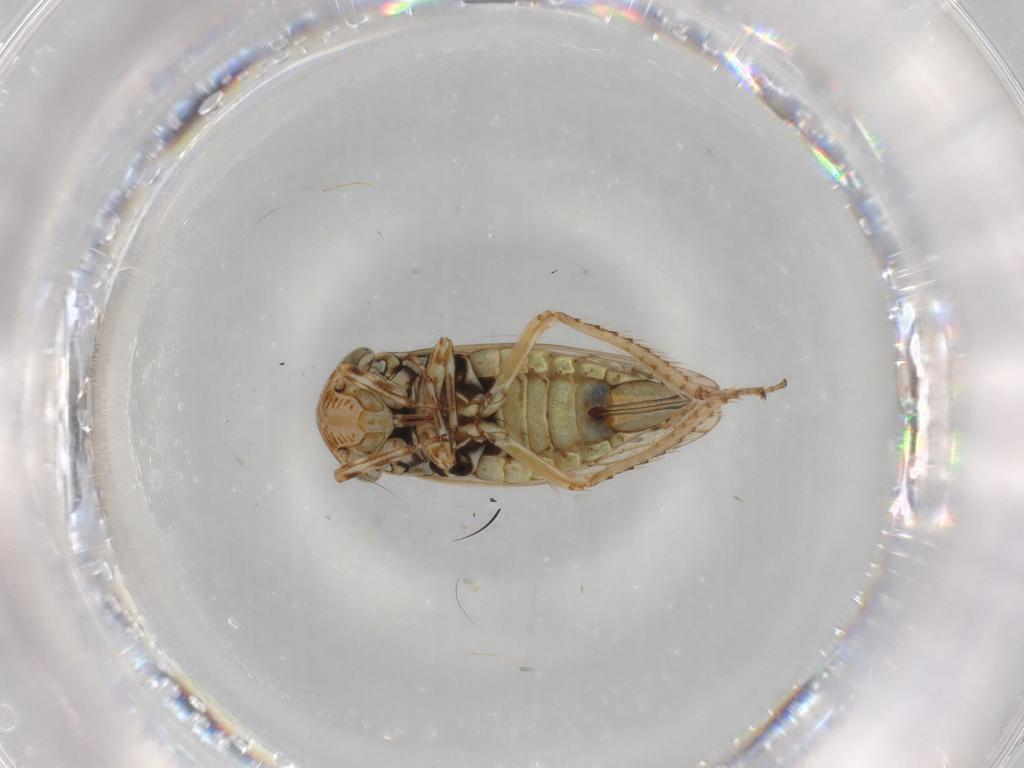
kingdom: Animalia
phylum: Arthropoda
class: Insecta
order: Hemiptera
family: Cicadellidae
